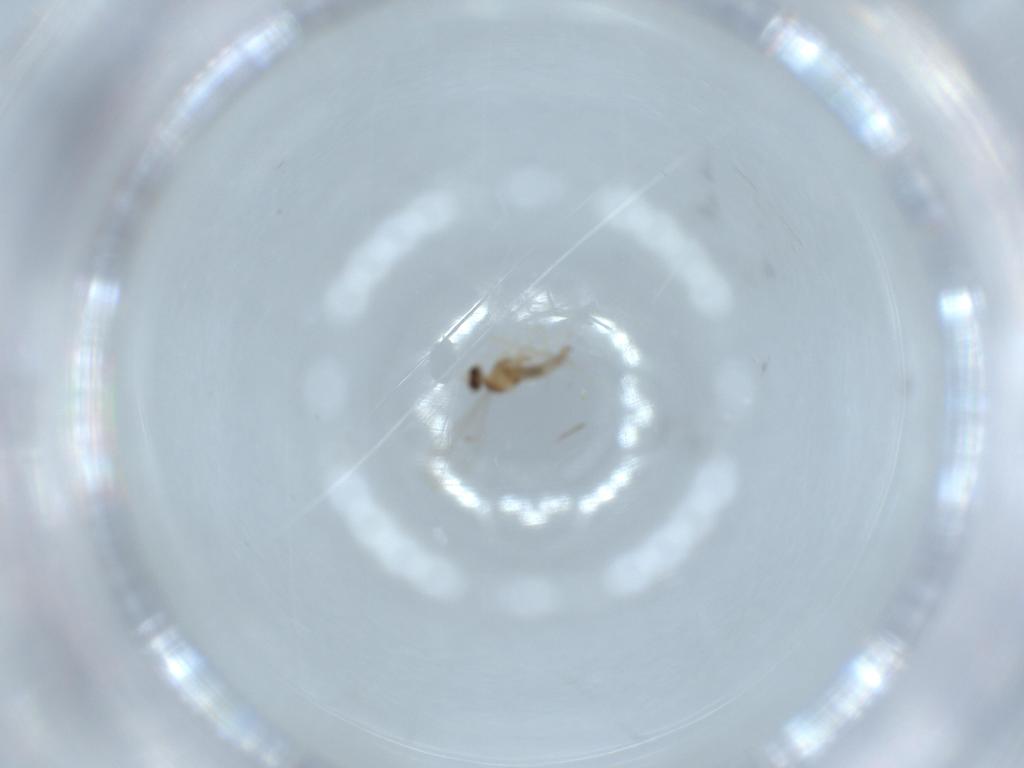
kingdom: Animalia
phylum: Arthropoda
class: Insecta
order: Diptera
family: Cecidomyiidae
